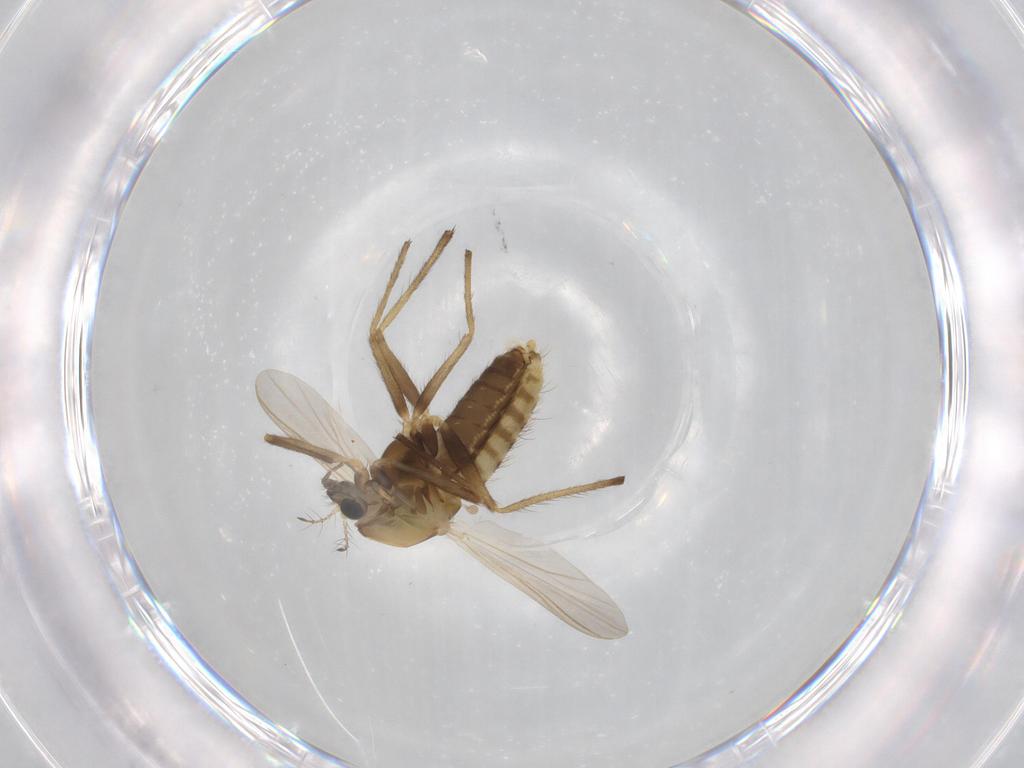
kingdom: Animalia
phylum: Arthropoda
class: Insecta
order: Diptera
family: Chironomidae
